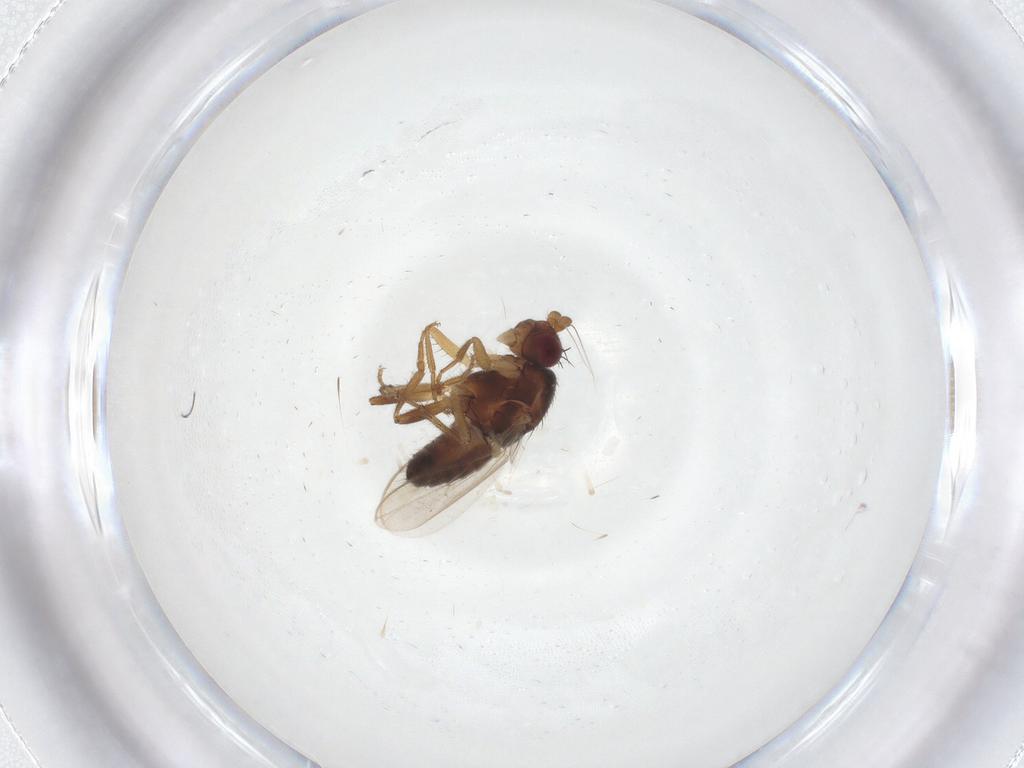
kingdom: Animalia
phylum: Arthropoda
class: Insecta
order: Diptera
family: Sphaeroceridae
